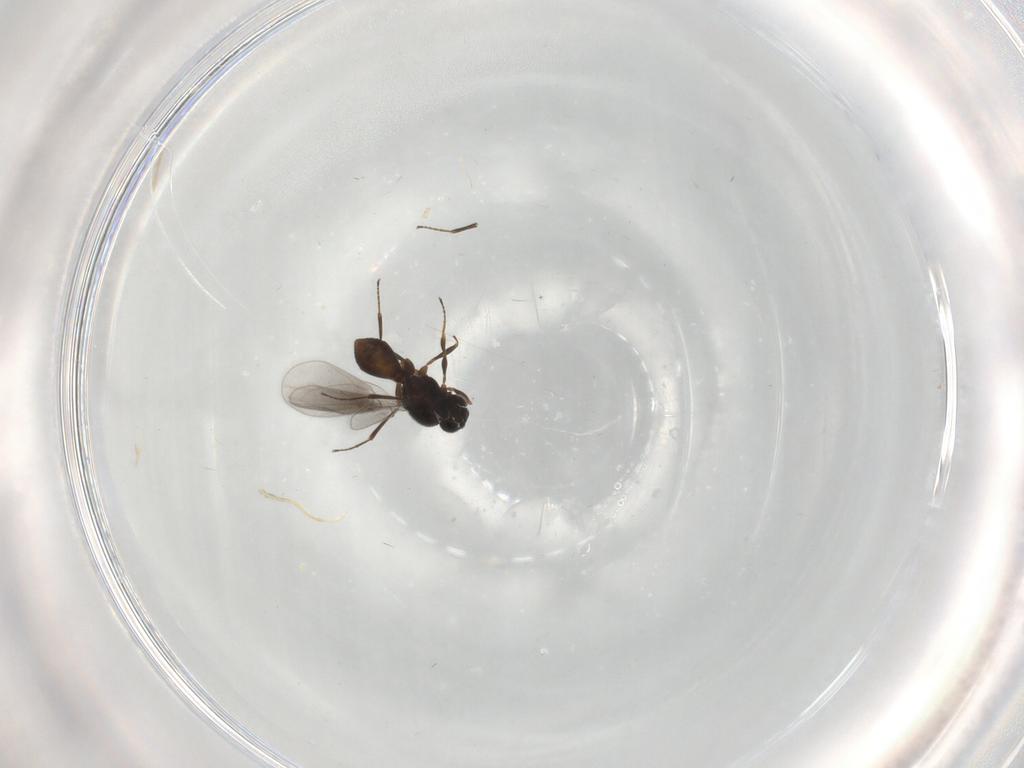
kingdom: Animalia
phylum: Arthropoda
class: Insecta
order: Hymenoptera
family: Platygastridae
